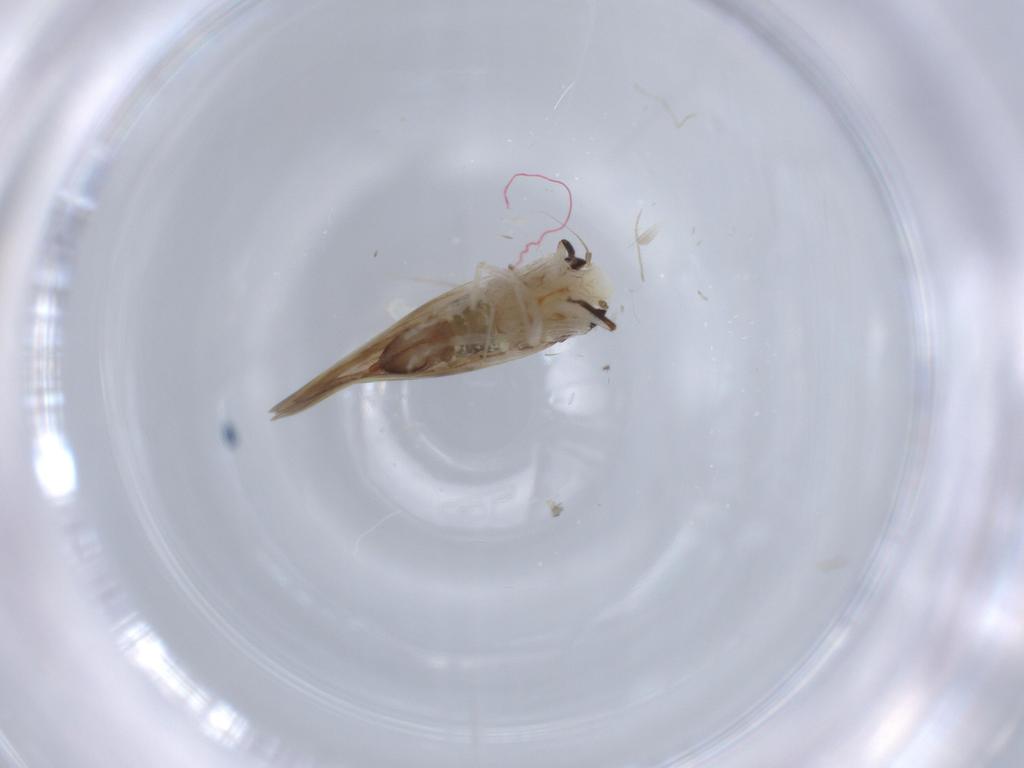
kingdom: Animalia
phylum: Arthropoda
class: Insecta
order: Hemiptera
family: Cicadellidae
